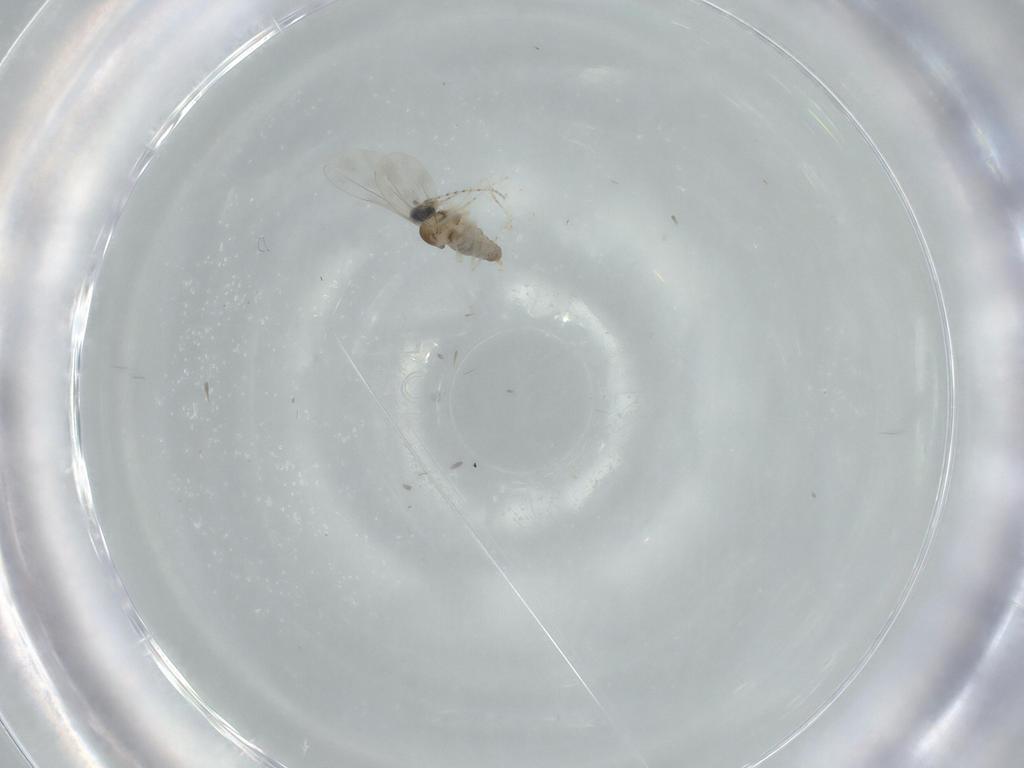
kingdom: Animalia
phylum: Arthropoda
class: Insecta
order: Diptera
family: Cecidomyiidae
